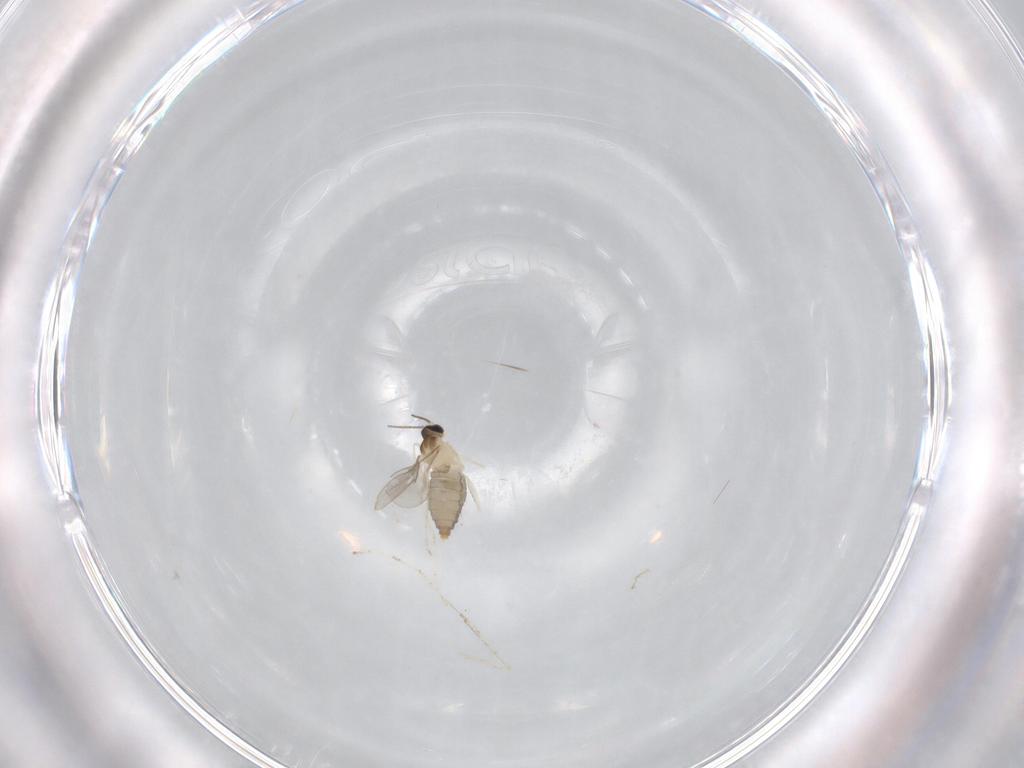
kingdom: Animalia
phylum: Arthropoda
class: Insecta
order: Diptera
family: Cecidomyiidae
